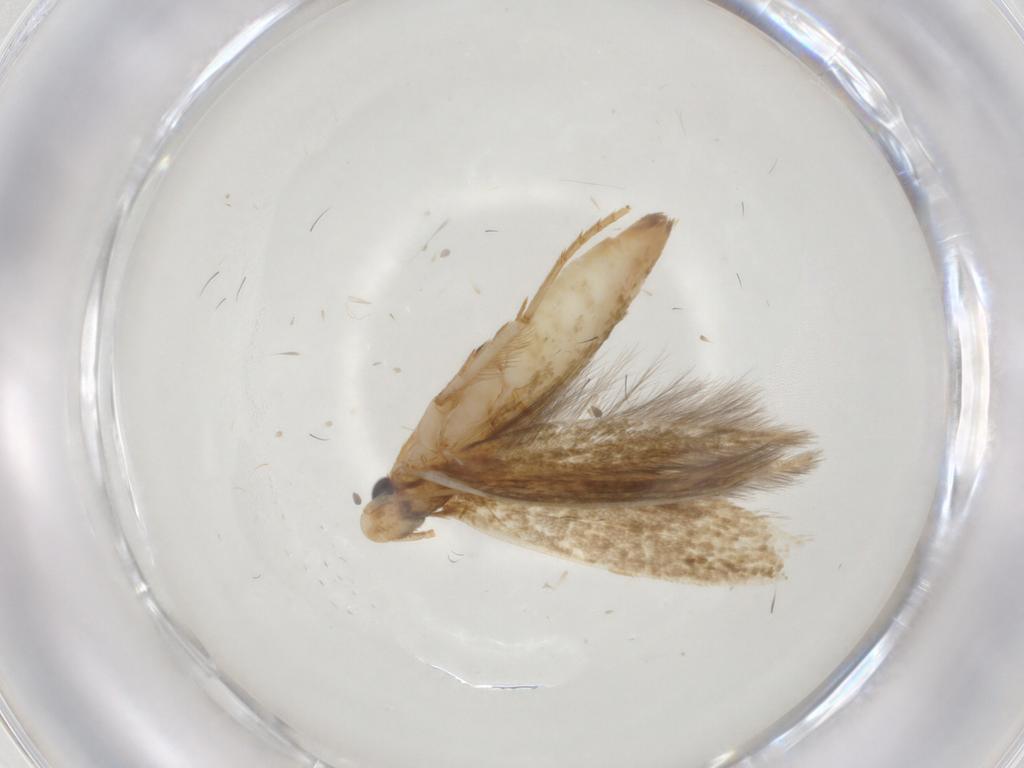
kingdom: Animalia
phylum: Arthropoda
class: Insecta
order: Lepidoptera
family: Tineidae
